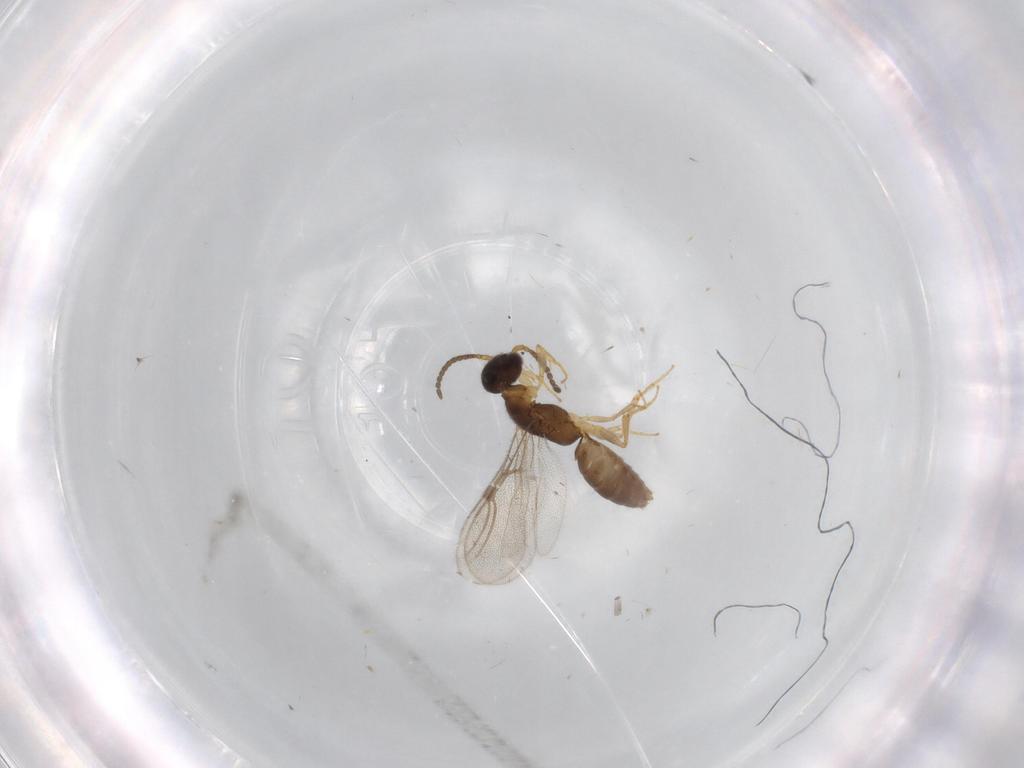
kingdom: Animalia
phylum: Arthropoda
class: Insecta
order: Hymenoptera
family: Bethylidae
